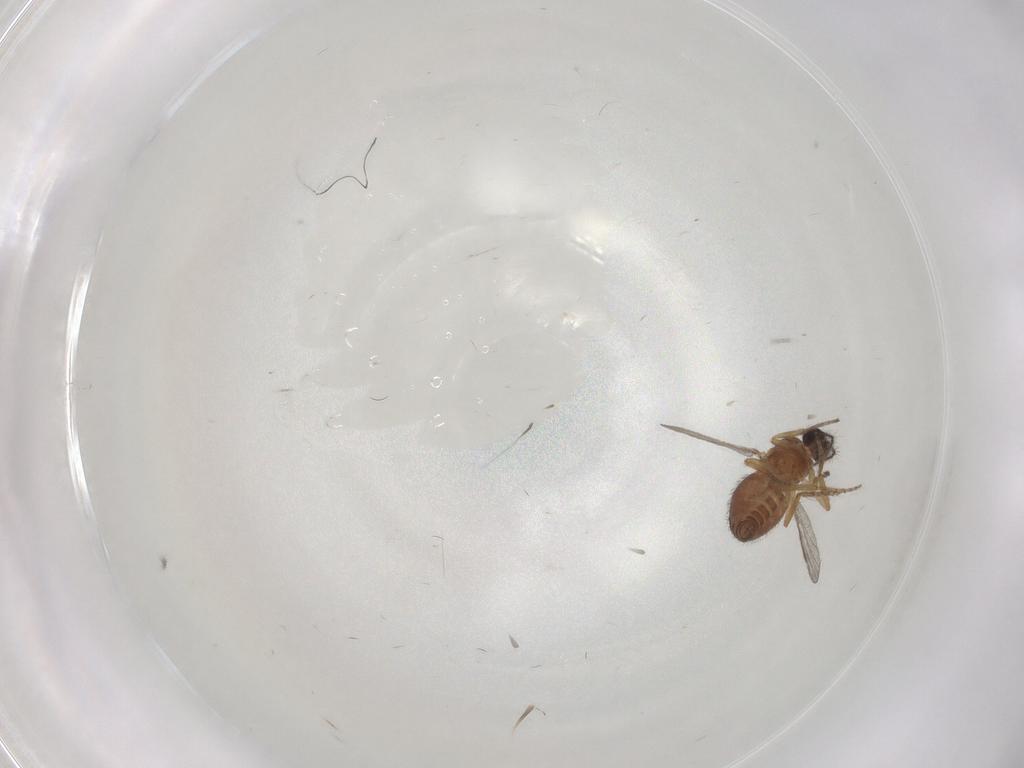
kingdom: Animalia
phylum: Arthropoda
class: Insecta
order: Diptera
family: Ceratopogonidae
